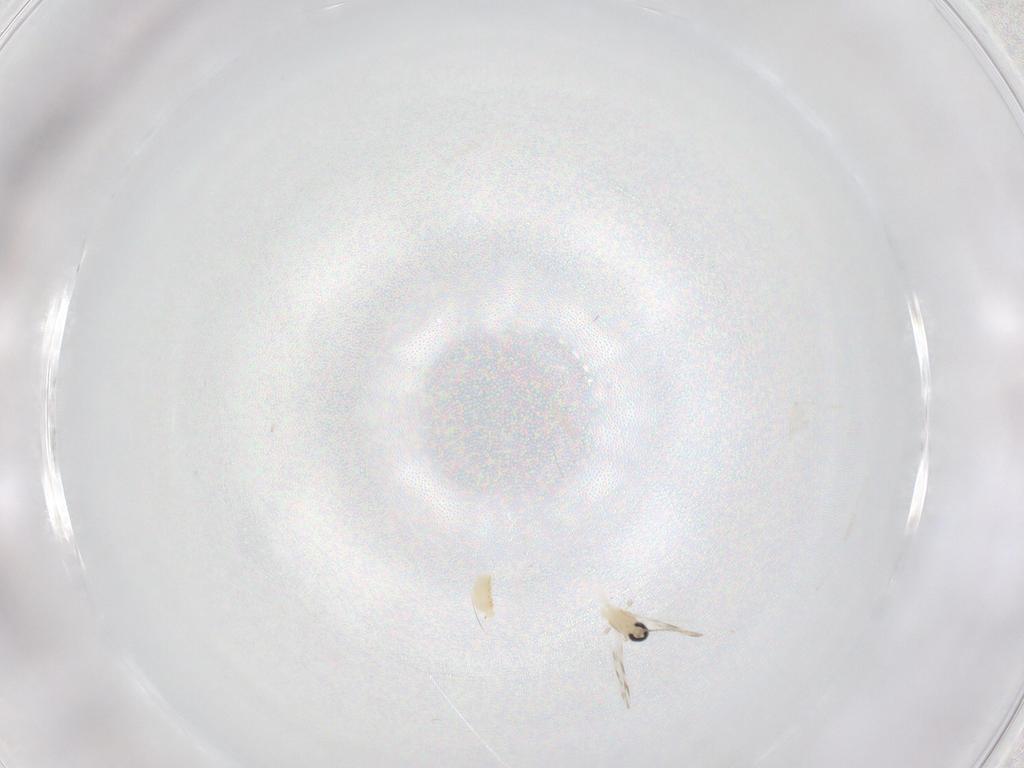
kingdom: Animalia
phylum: Arthropoda
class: Insecta
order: Diptera
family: Cecidomyiidae
